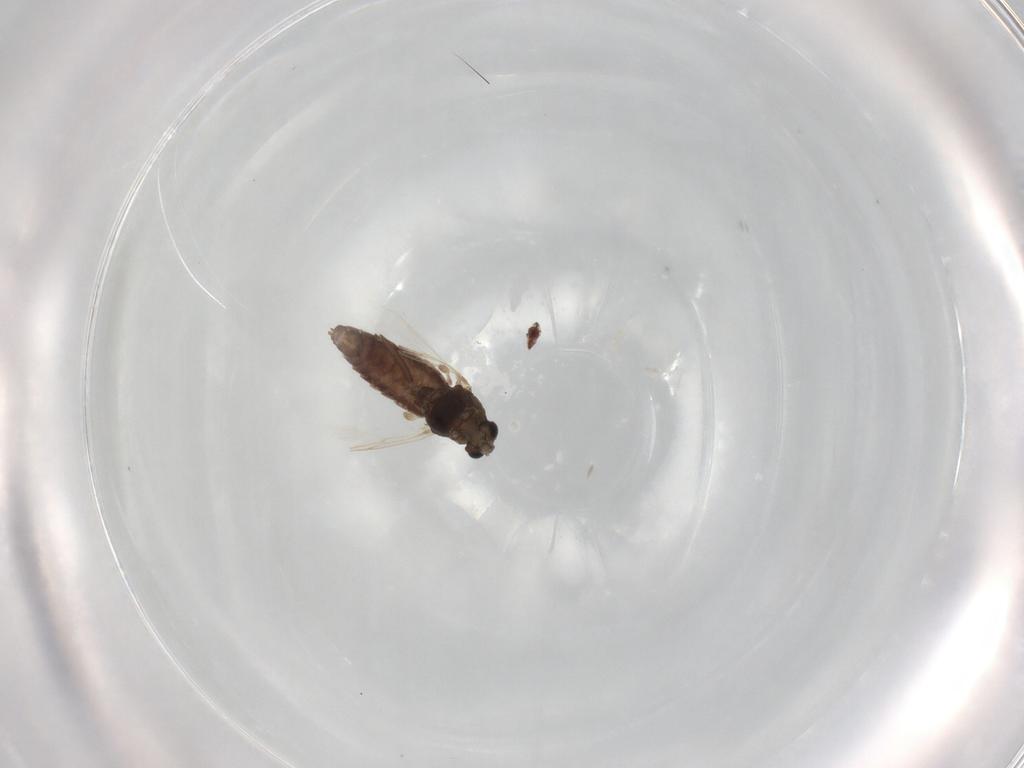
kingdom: Animalia
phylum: Arthropoda
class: Insecta
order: Diptera
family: Chironomidae
